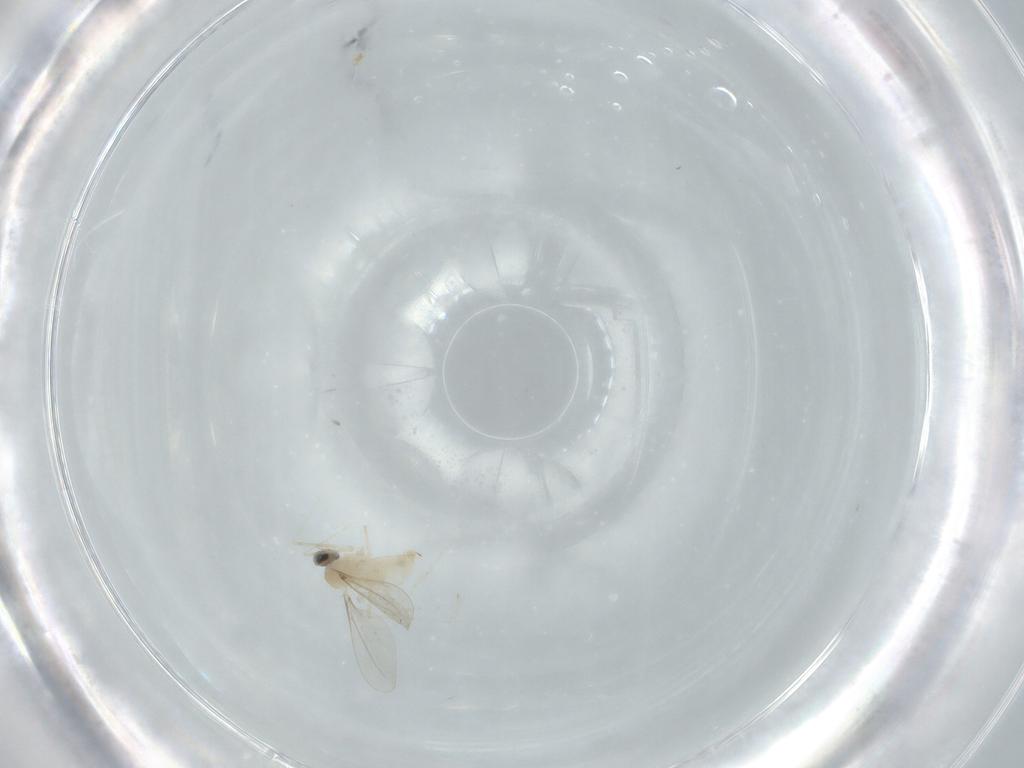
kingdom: Animalia
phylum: Arthropoda
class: Insecta
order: Diptera
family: Cecidomyiidae
